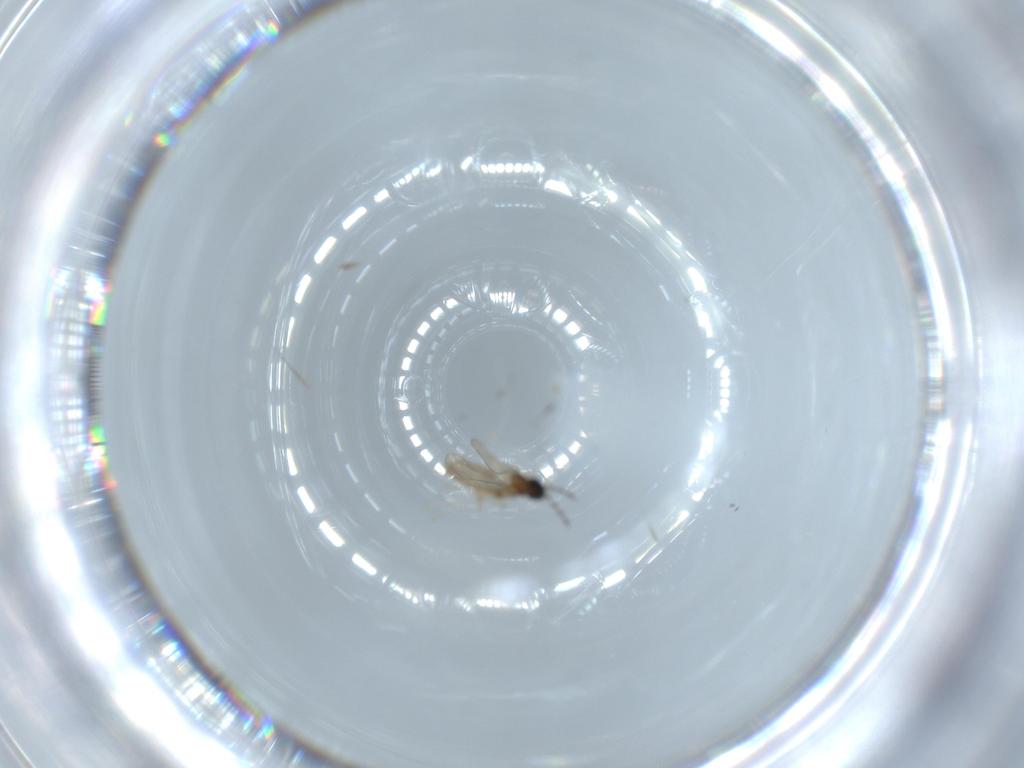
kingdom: Animalia
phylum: Arthropoda
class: Insecta
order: Diptera
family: Cecidomyiidae
